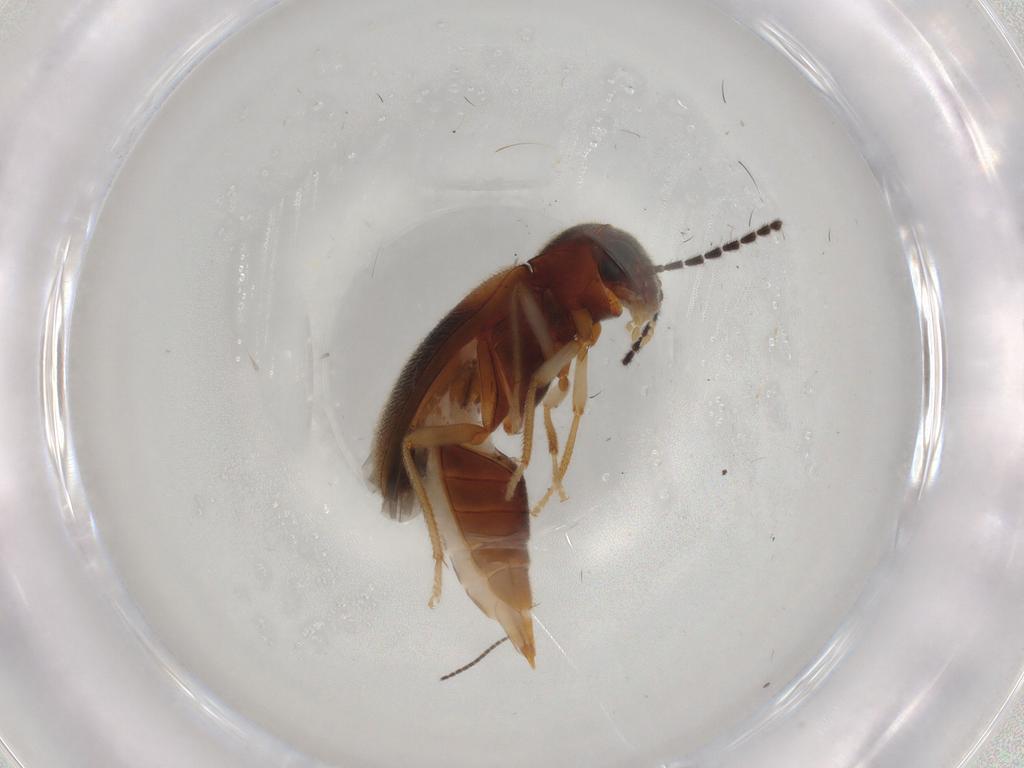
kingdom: Animalia
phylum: Arthropoda
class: Insecta
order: Coleoptera
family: Ptilodactylidae
